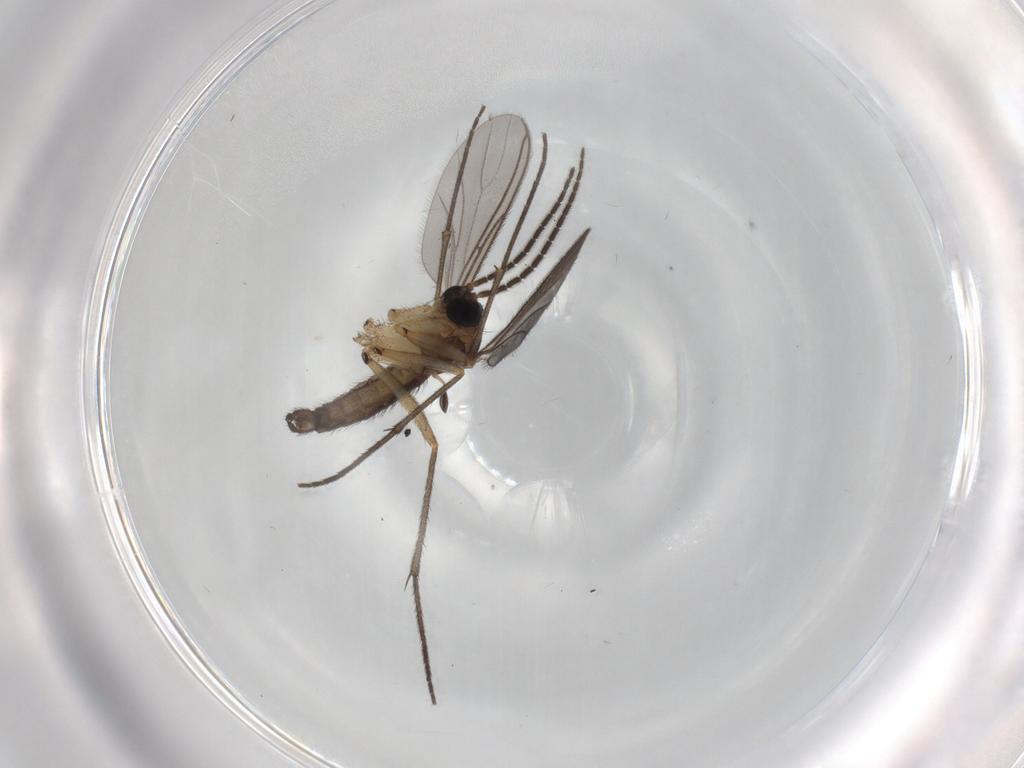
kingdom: Animalia
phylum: Arthropoda
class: Insecta
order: Diptera
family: Sciaridae
